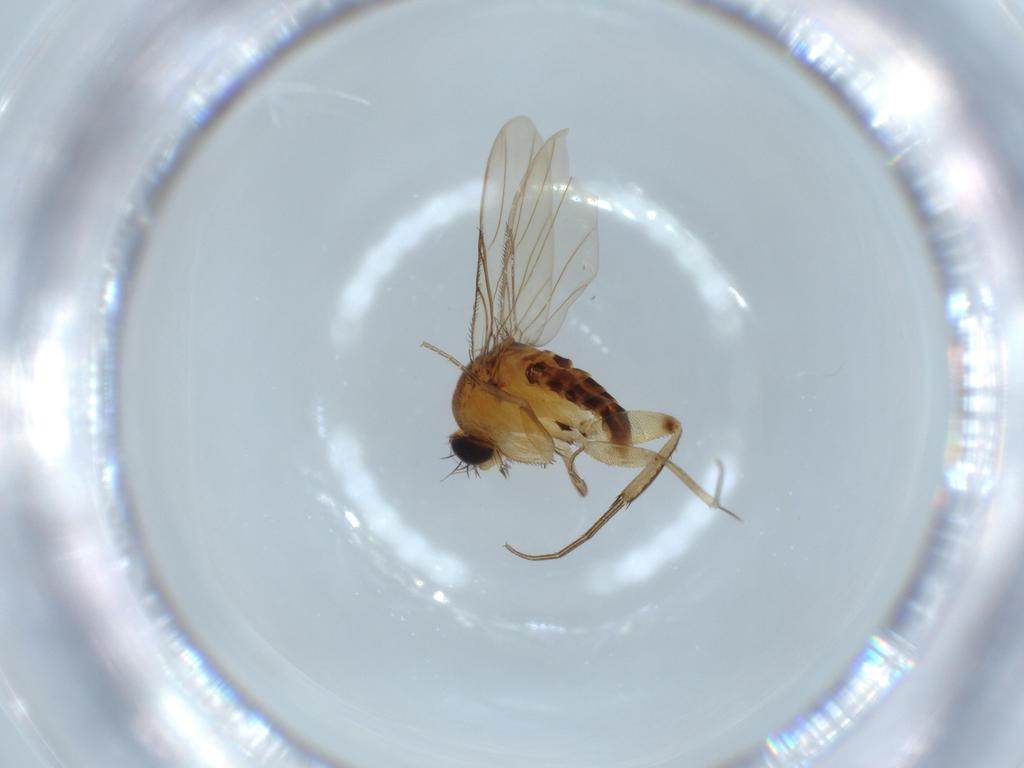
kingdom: Animalia
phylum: Arthropoda
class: Insecta
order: Diptera
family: Phoridae
